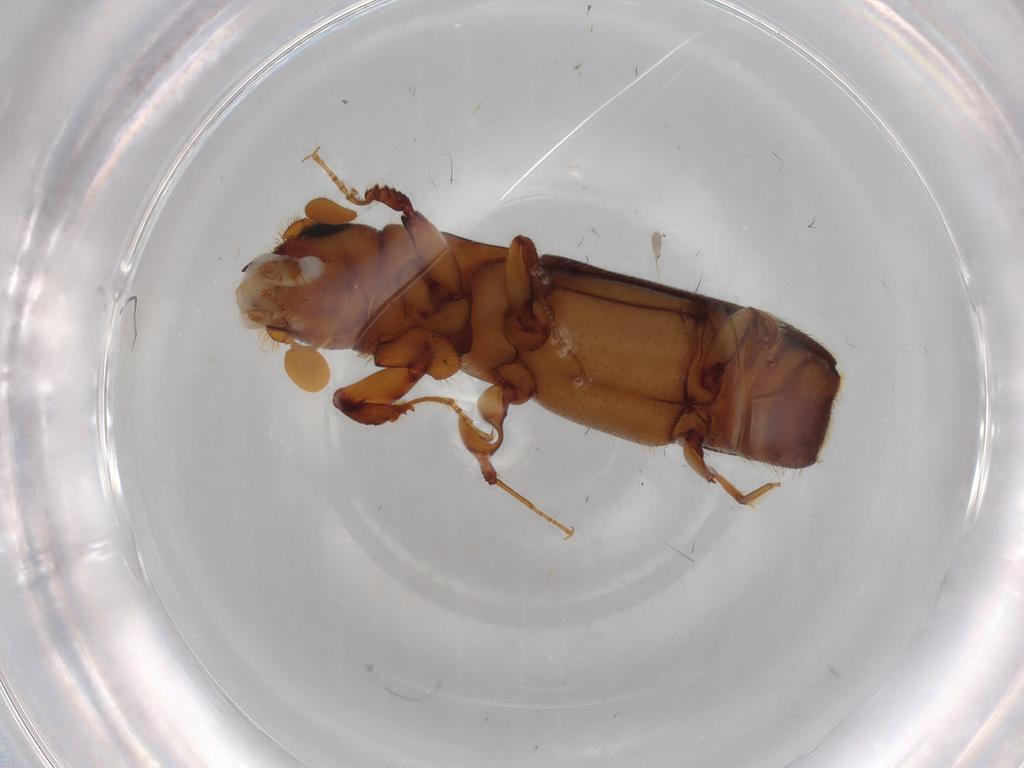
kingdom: Animalia
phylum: Arthropoda
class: Insecta
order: Coleoptera
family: Curculionidae
